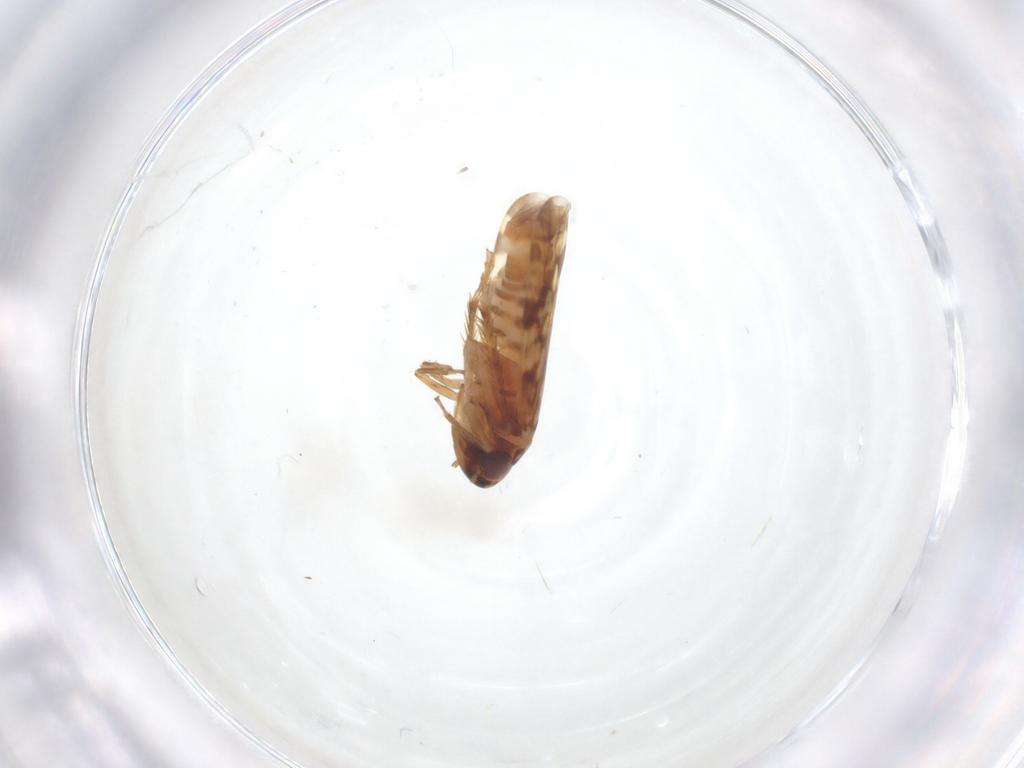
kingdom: Animalia
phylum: Arthropoda
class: Insecta
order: Hemiptera
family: Cicadellidae
